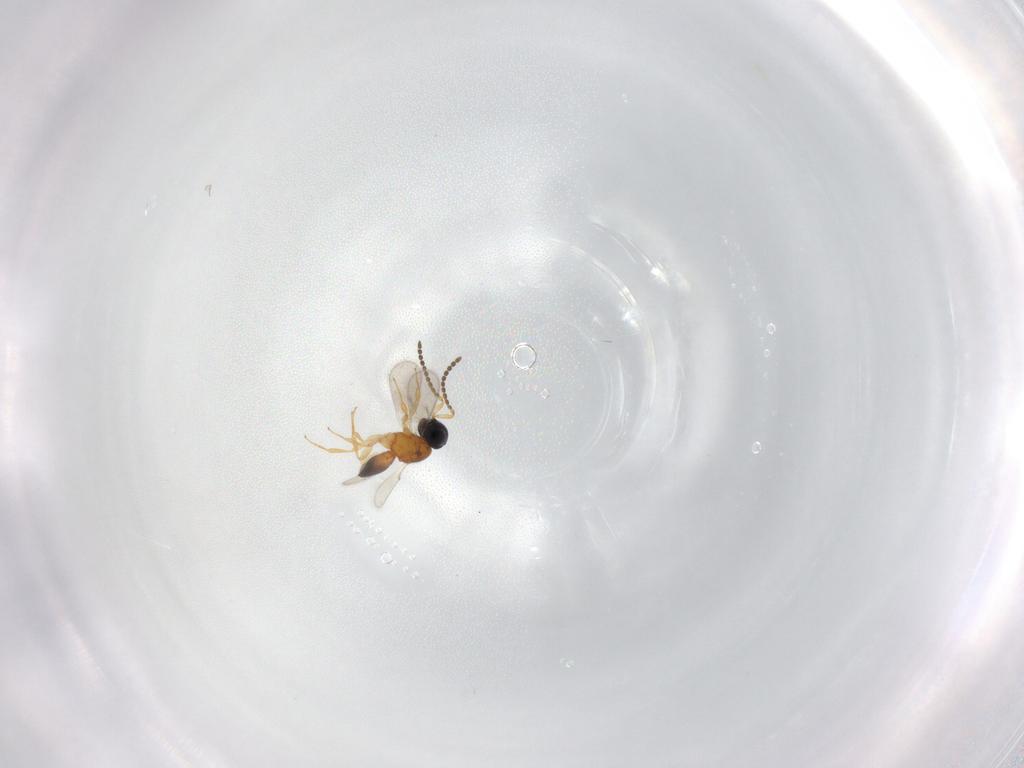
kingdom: Animalia
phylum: Arthropoda
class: Insecta
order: Hymenoptera
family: Scelionidae
